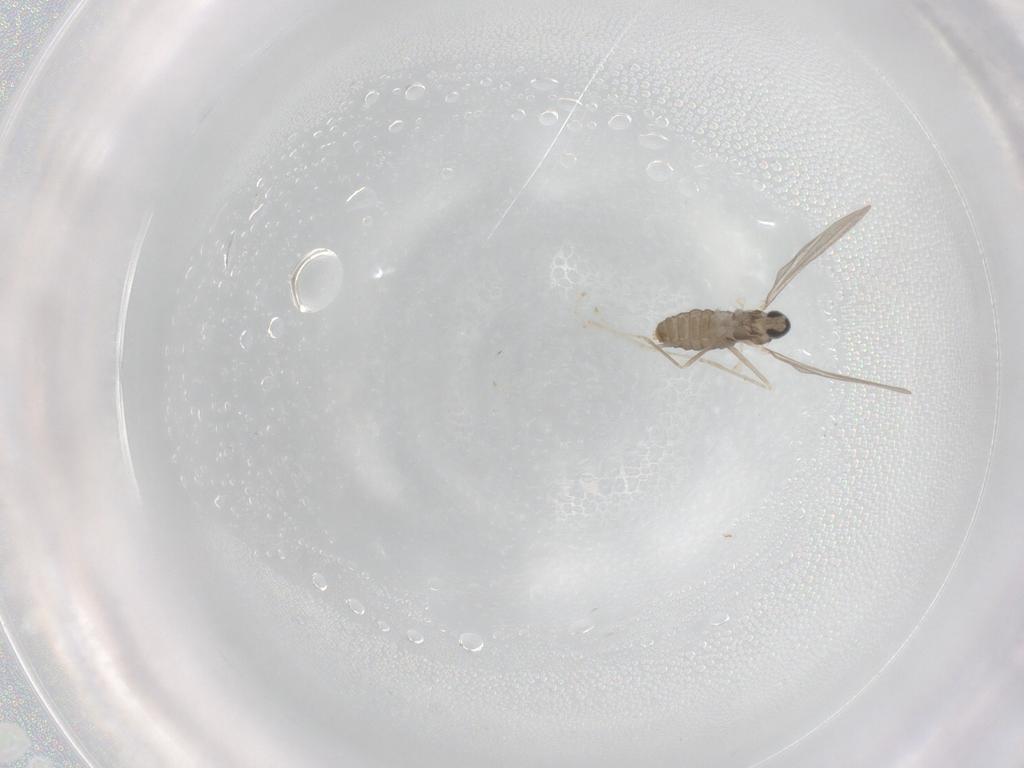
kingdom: Animalia
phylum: Arthropoda
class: Insecta
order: Diptera
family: Cecidomyiidae
